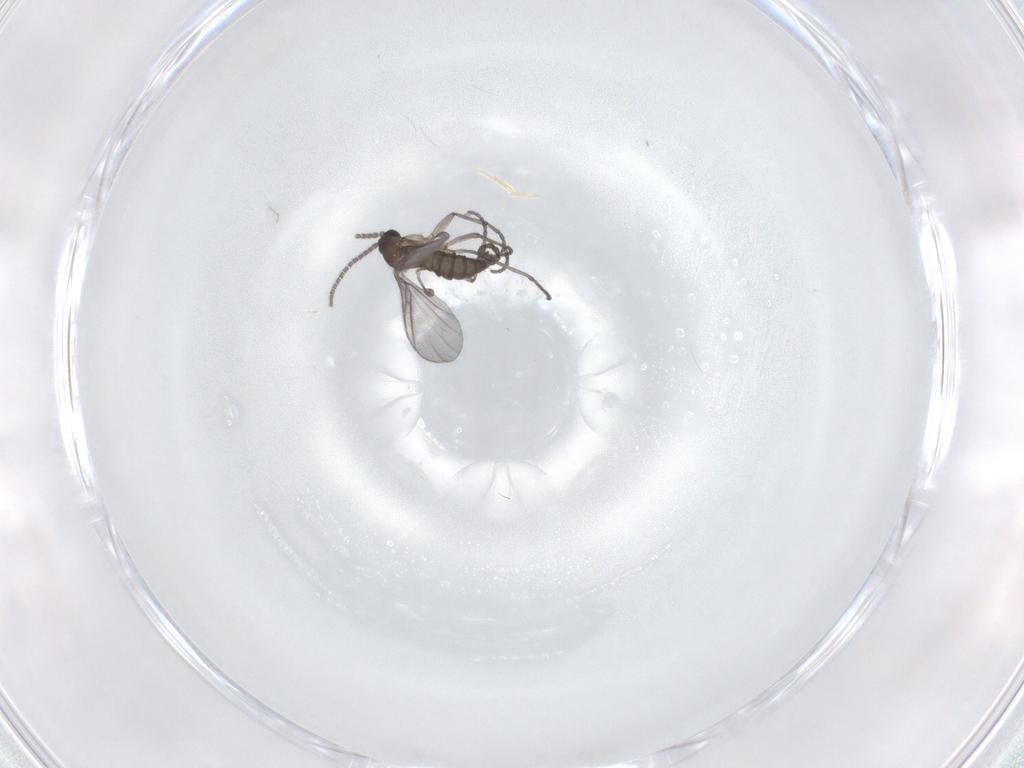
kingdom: Animalia
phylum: Arthropoda
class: Insecta
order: Diptera
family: Sciaridae
